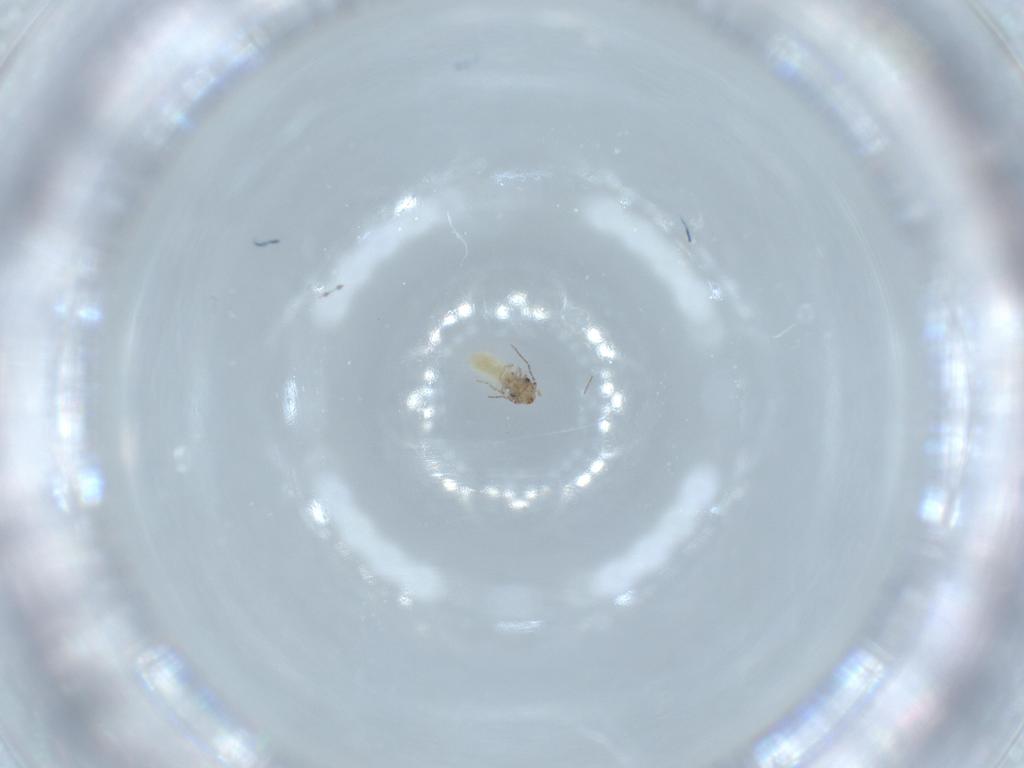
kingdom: Animalia
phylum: Arthropoda
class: Insecta
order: Psocodea
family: Lepidopsocidae
